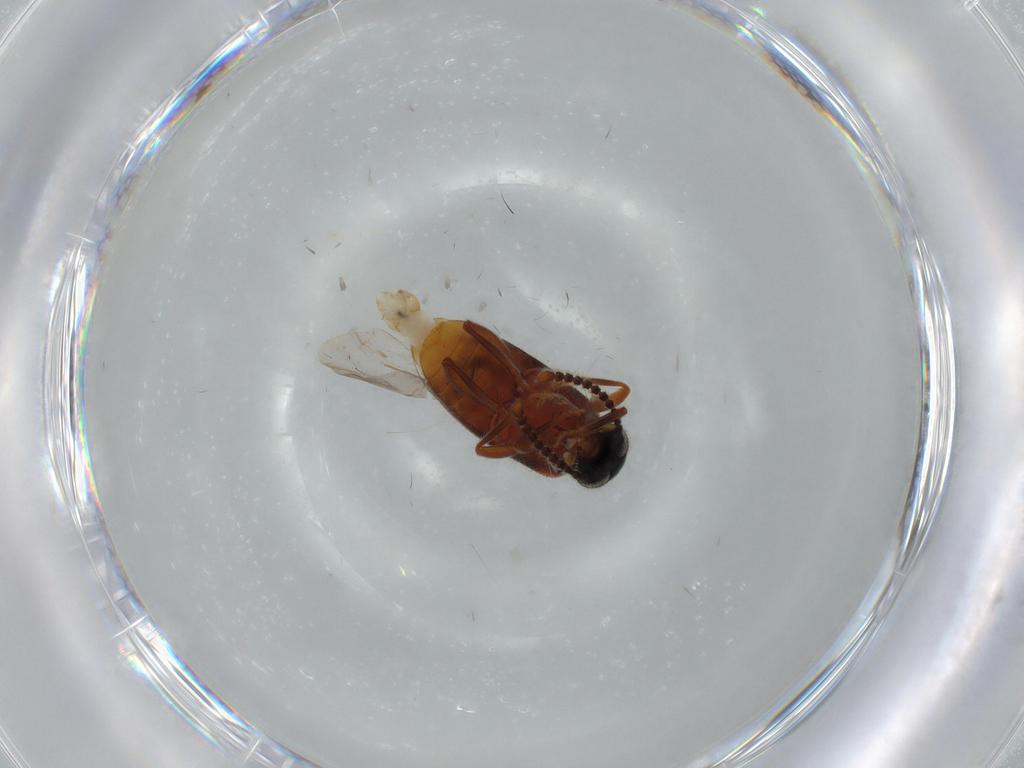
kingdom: Animalia
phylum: Arthropoda
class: Insecta
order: Coleoptera
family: Aderidae
